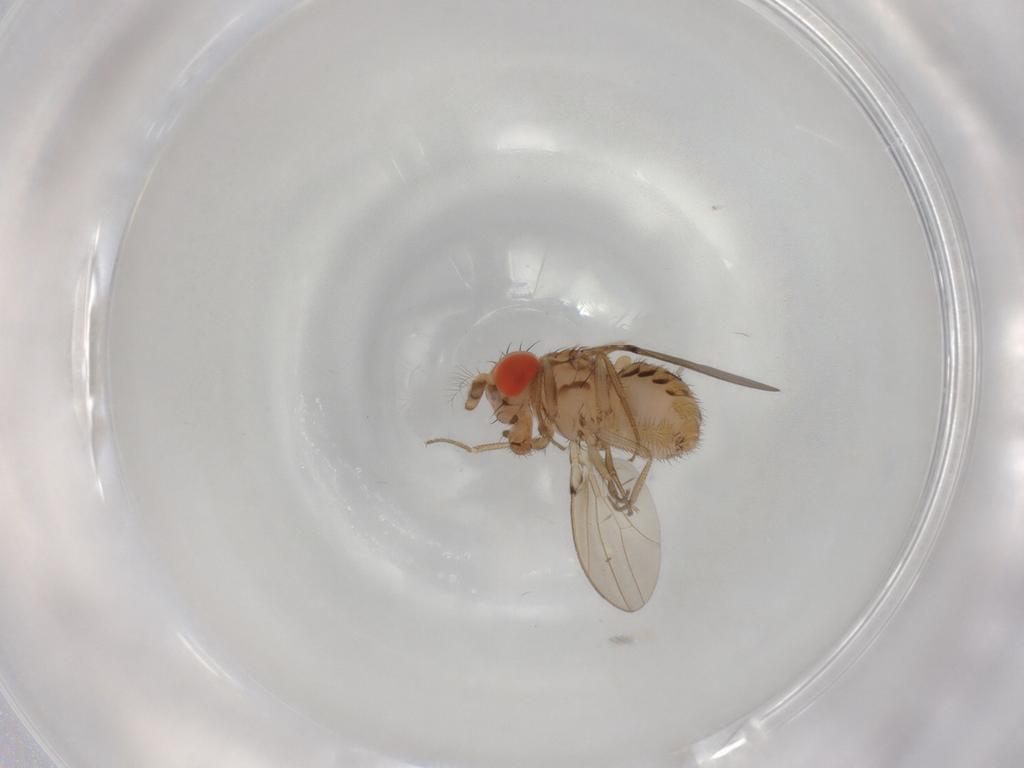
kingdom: Animalia
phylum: Arthropoda
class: Insecta
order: Diptera
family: Drosophilidae
